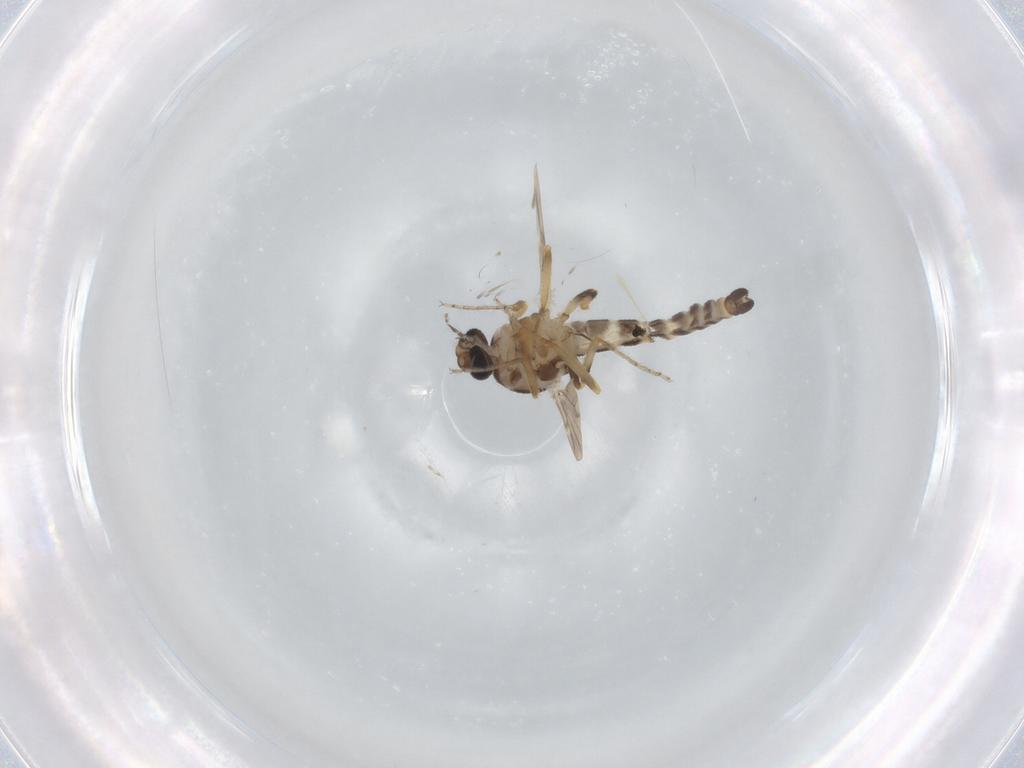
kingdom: Animalia
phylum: Arthropoda
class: Insecta
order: Diptera
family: Ceratopogonidae
